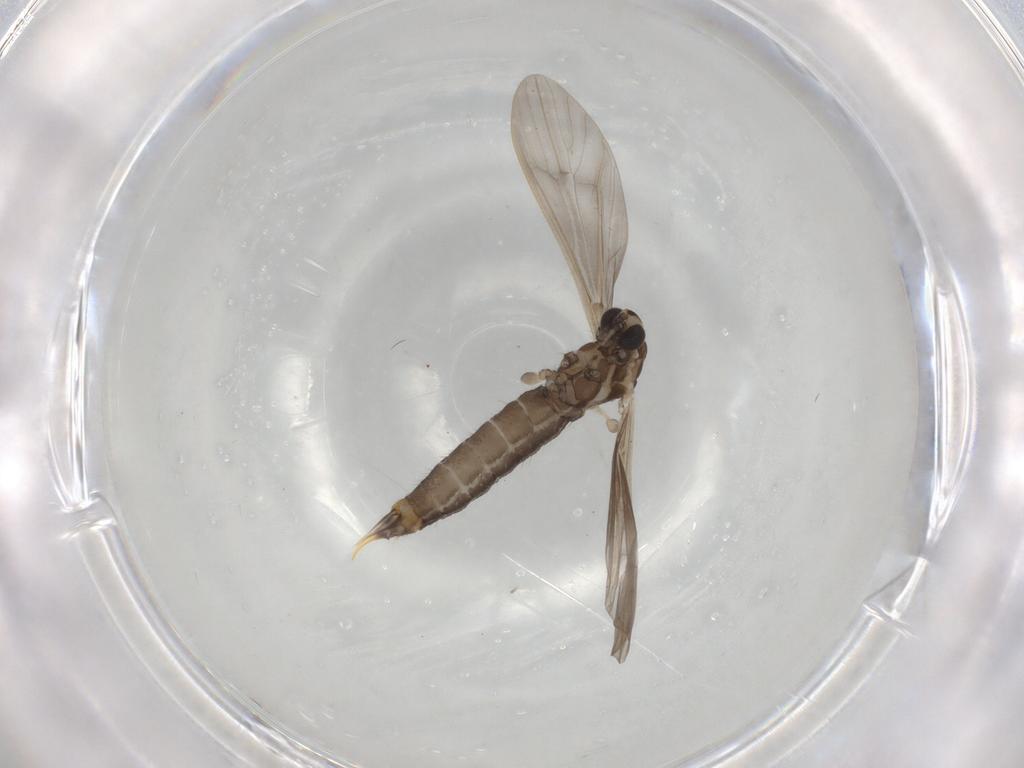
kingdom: Animalia
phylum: Arthropoda
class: Insecta
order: Diptera
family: Limoniidae
